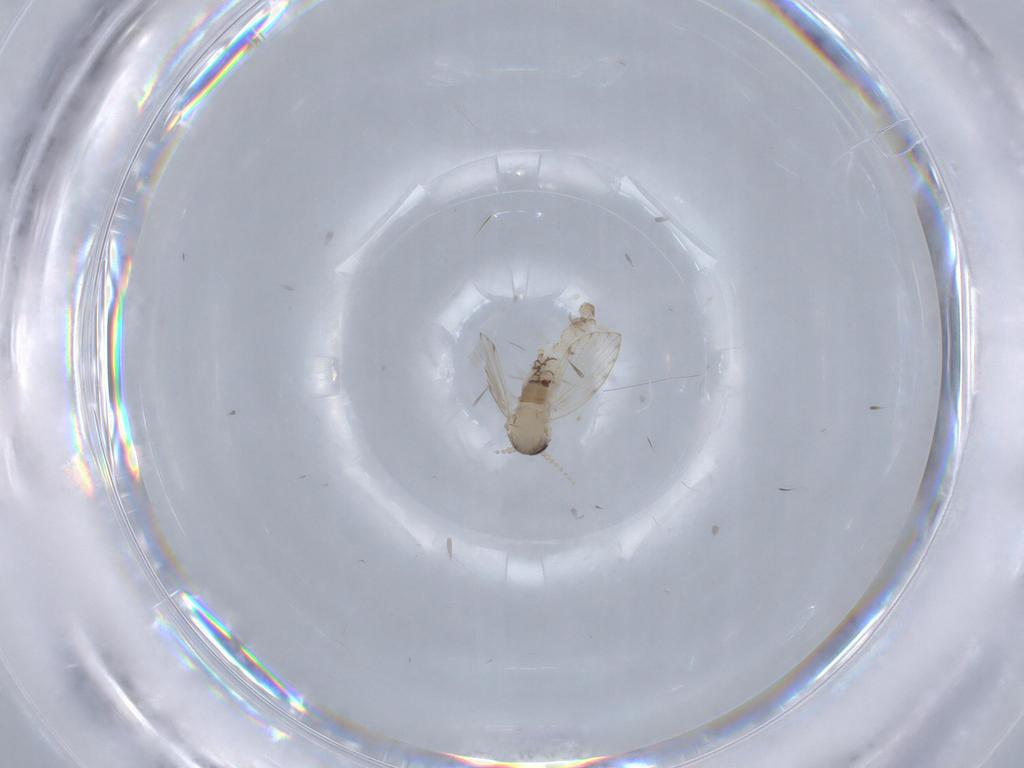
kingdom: Animalia
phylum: Arthropoda
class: Insecta
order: Diptera
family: Psychodidae
